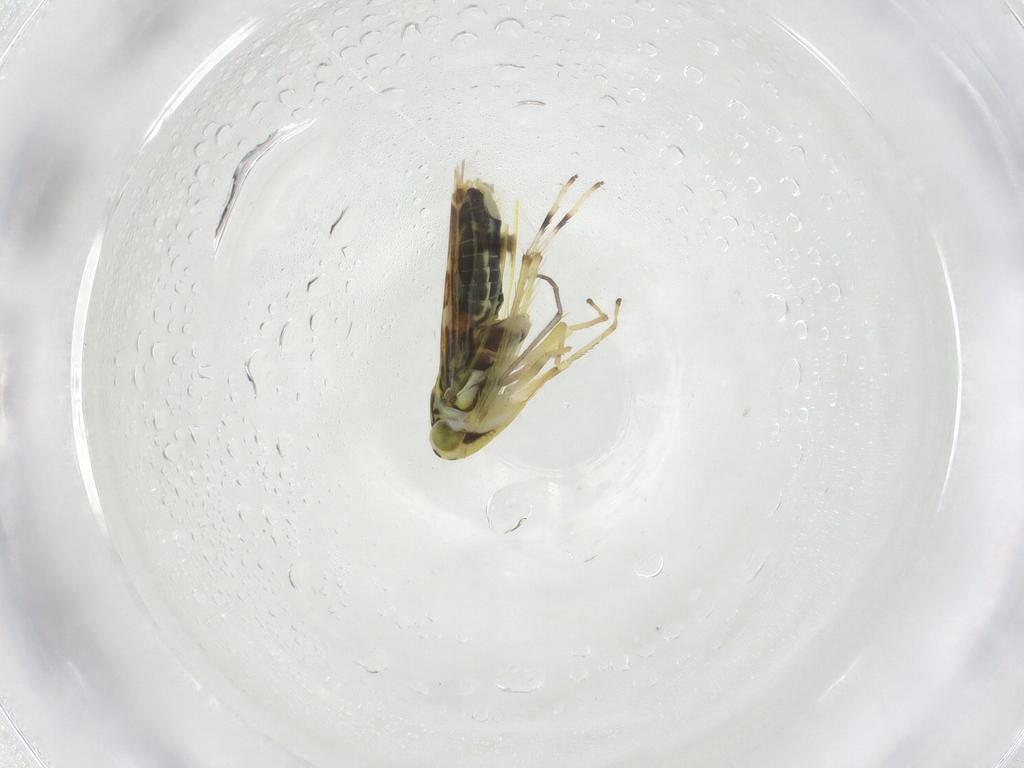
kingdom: Animalia
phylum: Arthropoda
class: Insecta
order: Hemiptera
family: Cicadellidae
